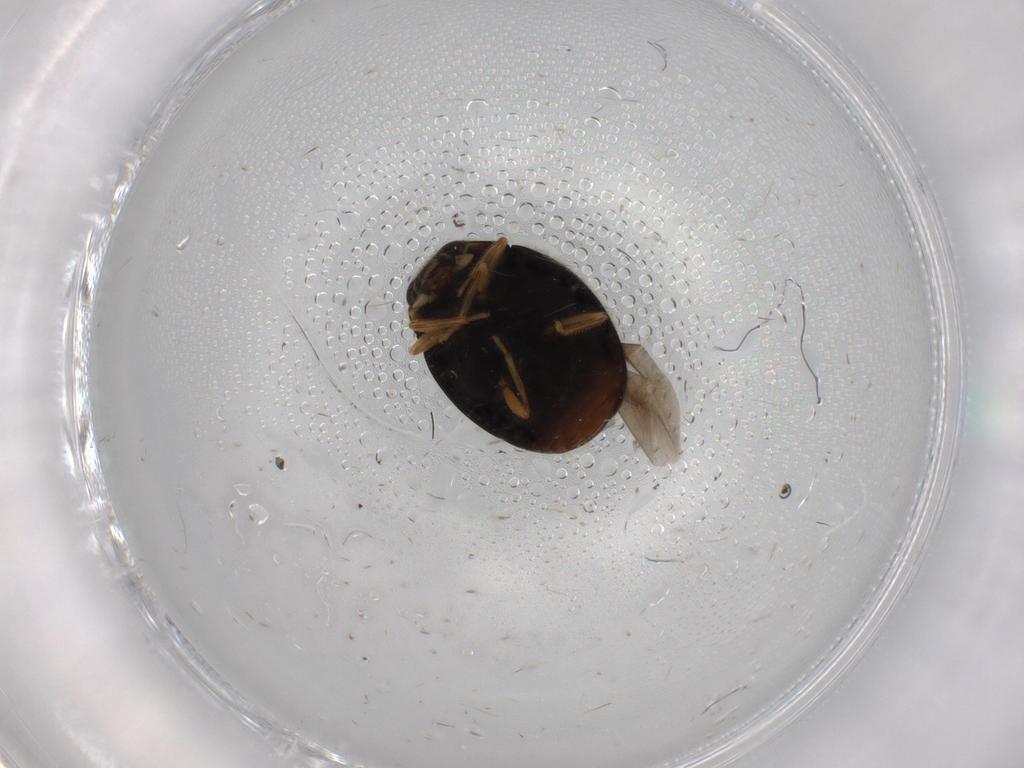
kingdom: Animalia
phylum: Arthropoda
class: Insecta
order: Coleoptera
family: Coccinellidae
